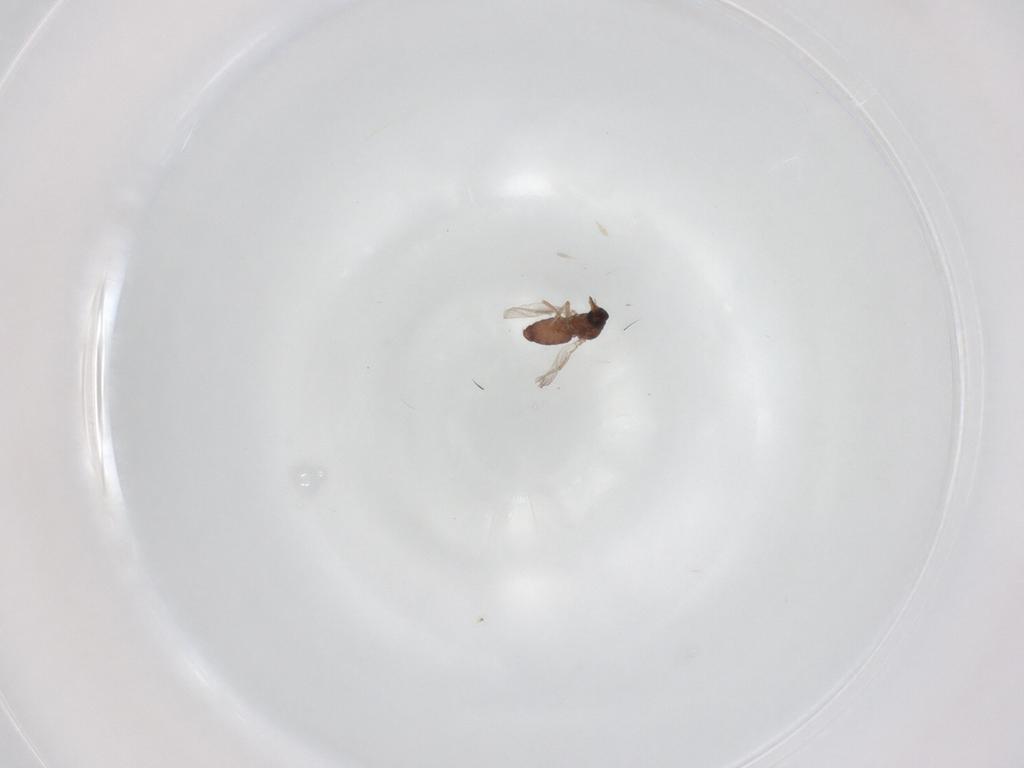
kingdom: Animalia
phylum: Arthropoda
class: Insecta
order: Diptera
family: Ceratopogonidae
